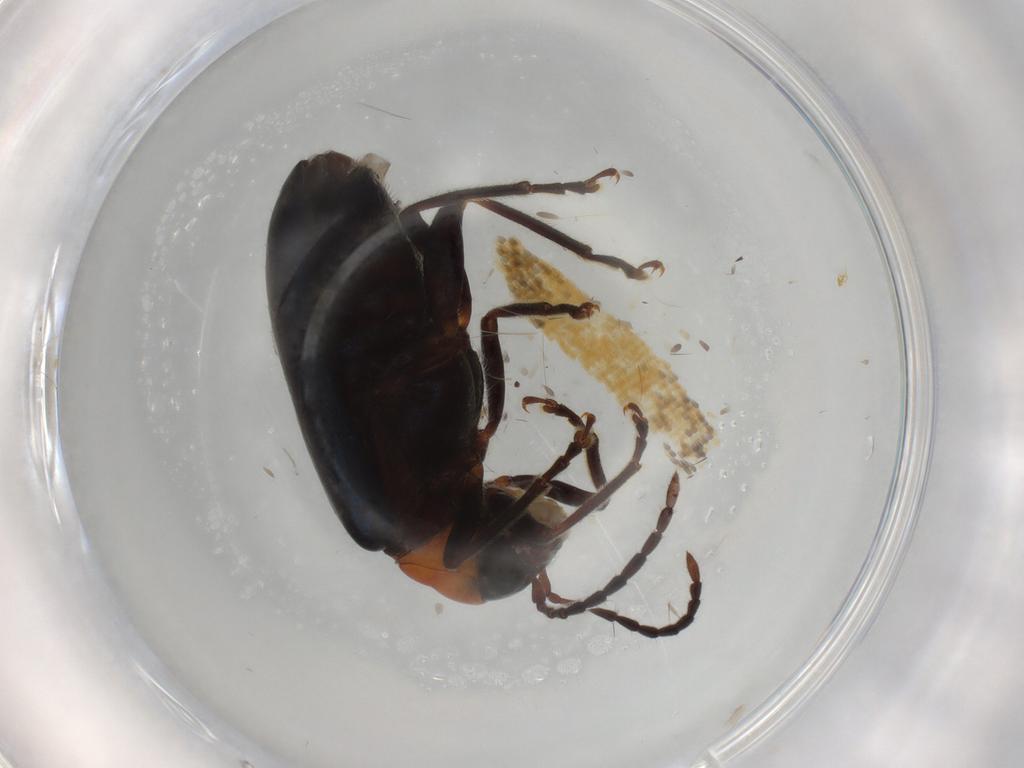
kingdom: Animalia
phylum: Arthropoda
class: Insecta
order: Coleoptera
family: Chrysomelidae
